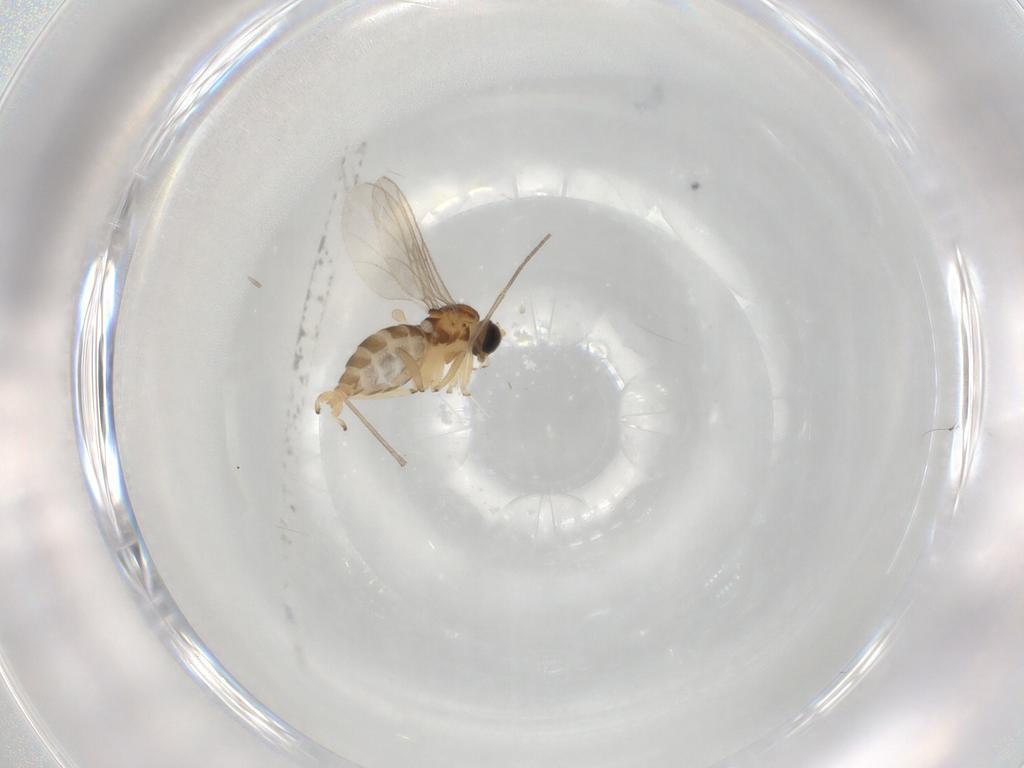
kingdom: Animalia
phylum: Arthropoda
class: Insecta
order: Diptera
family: Sciaridae
